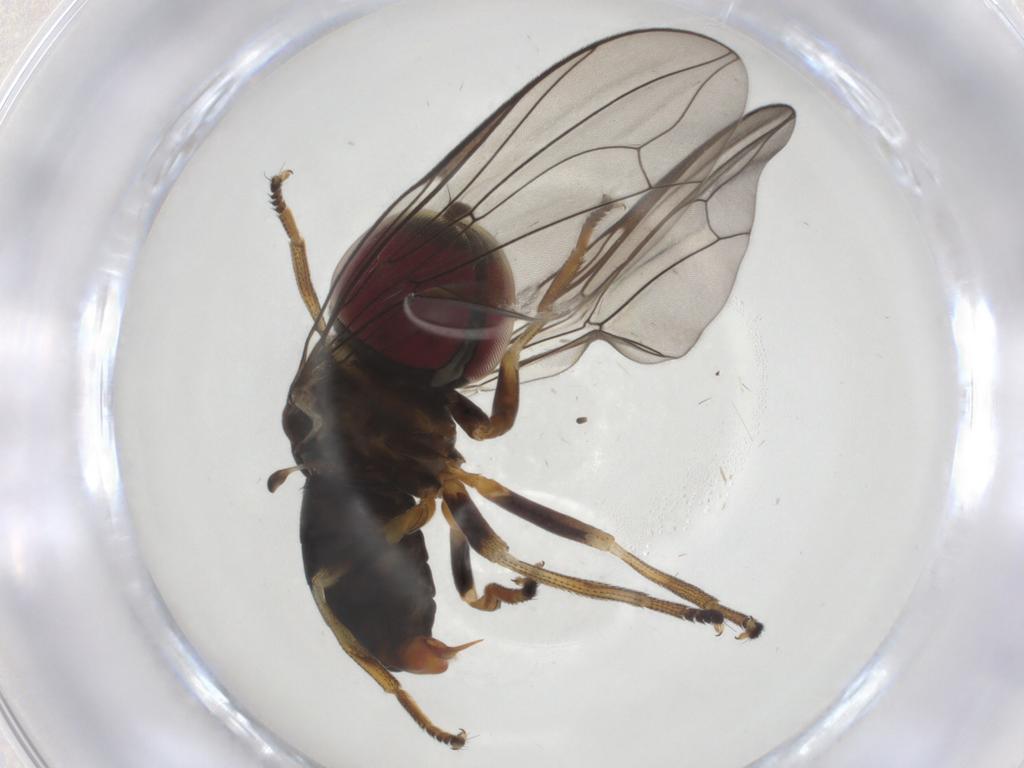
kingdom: Animalia
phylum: Arthropoda
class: Insecta
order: Diptera
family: Pipunculidae
